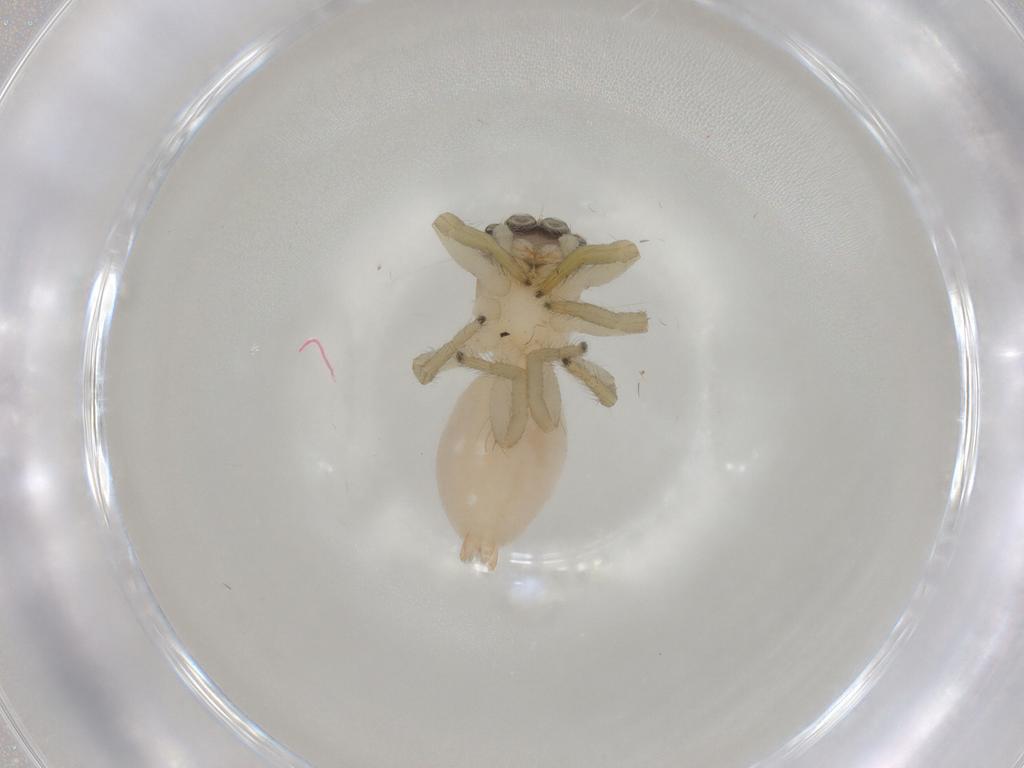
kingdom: Animalia
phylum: Arthropoda
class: Arachnida
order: Araneae
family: Salticidae
